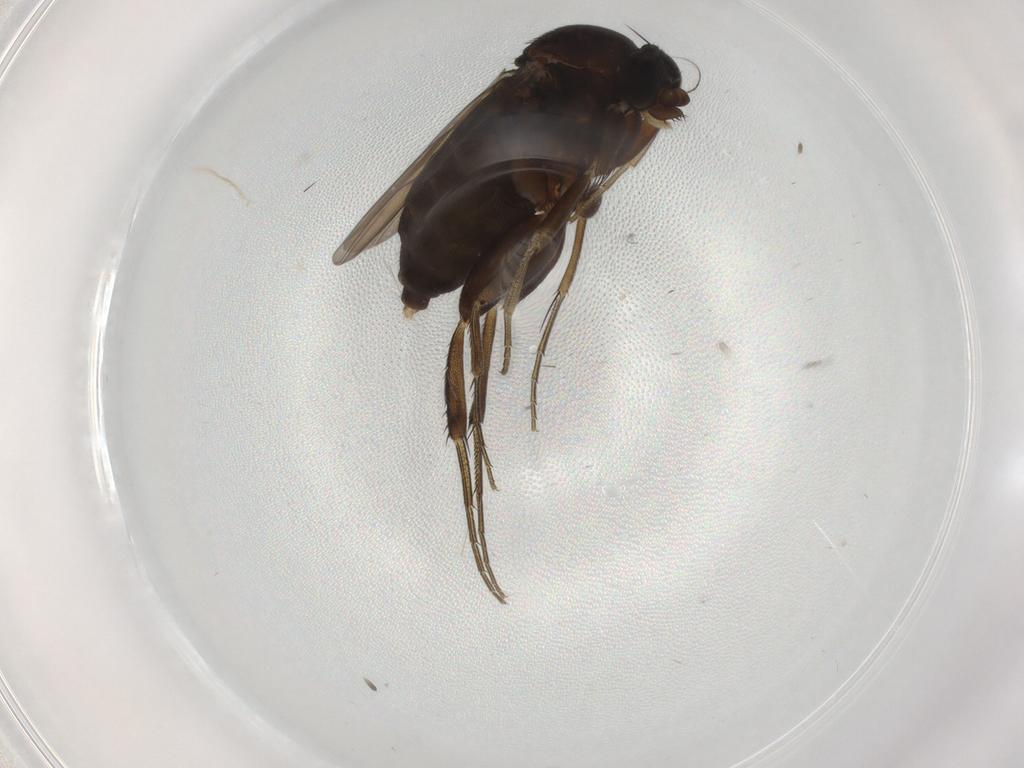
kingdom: Animalia
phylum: Arthropoda
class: Insecta
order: Diptera
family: Phoridae
